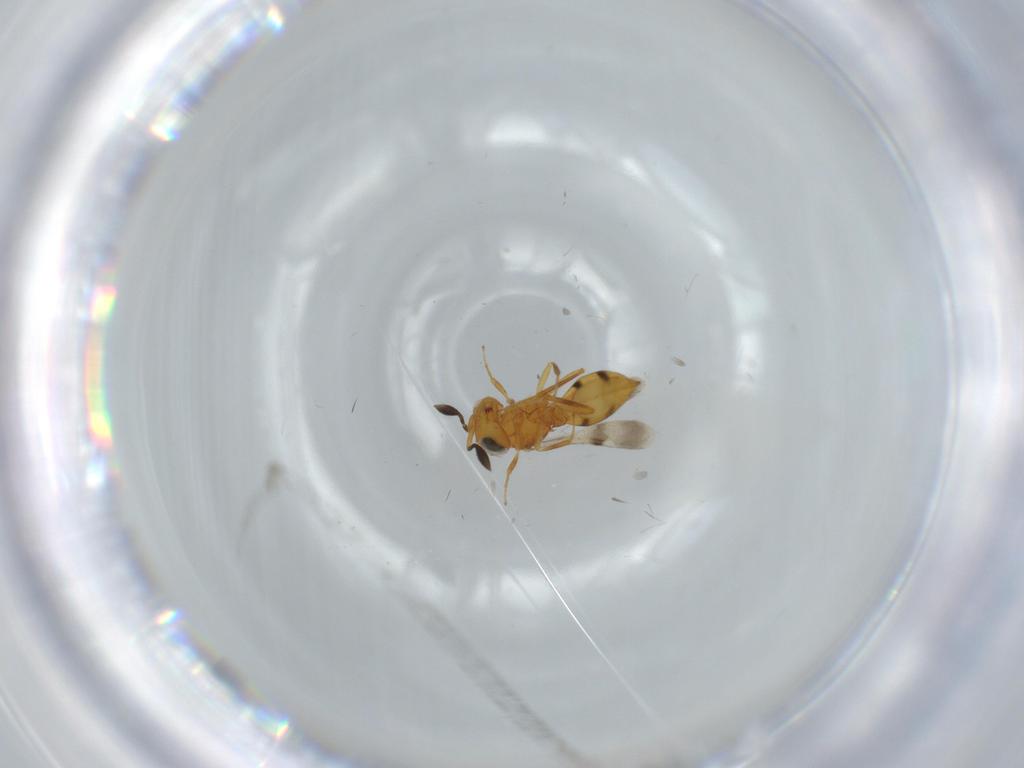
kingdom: Animalia
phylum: Arthropoda
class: Insecta
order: Hymenoptera
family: Scelionidae
